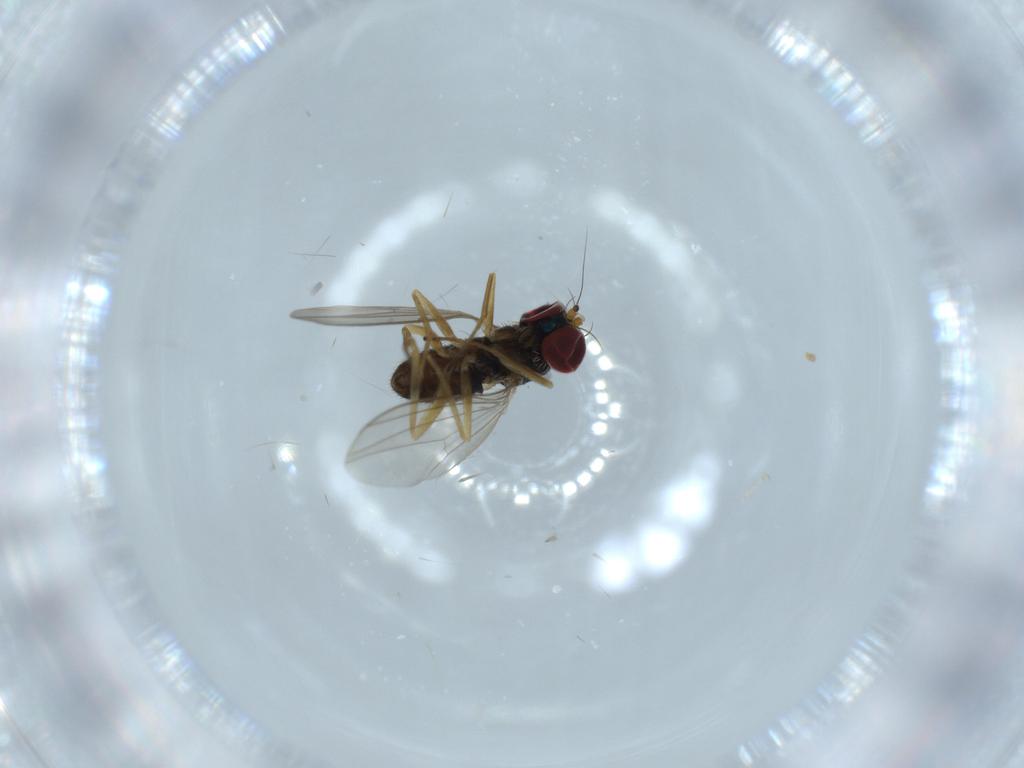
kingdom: Animalia
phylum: Arthropoda
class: Insecta
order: Diptera
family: Dolichopodidae
